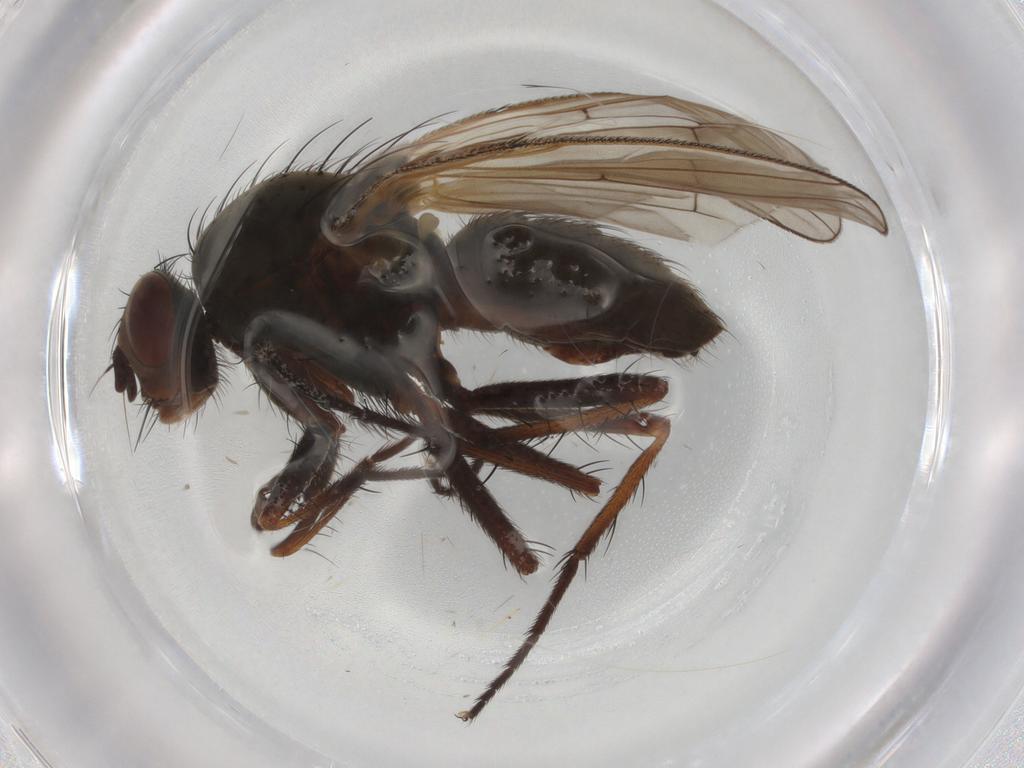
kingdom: Animalia
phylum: Arthropoda
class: Insecta
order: Diptera
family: Anthomyiidae
